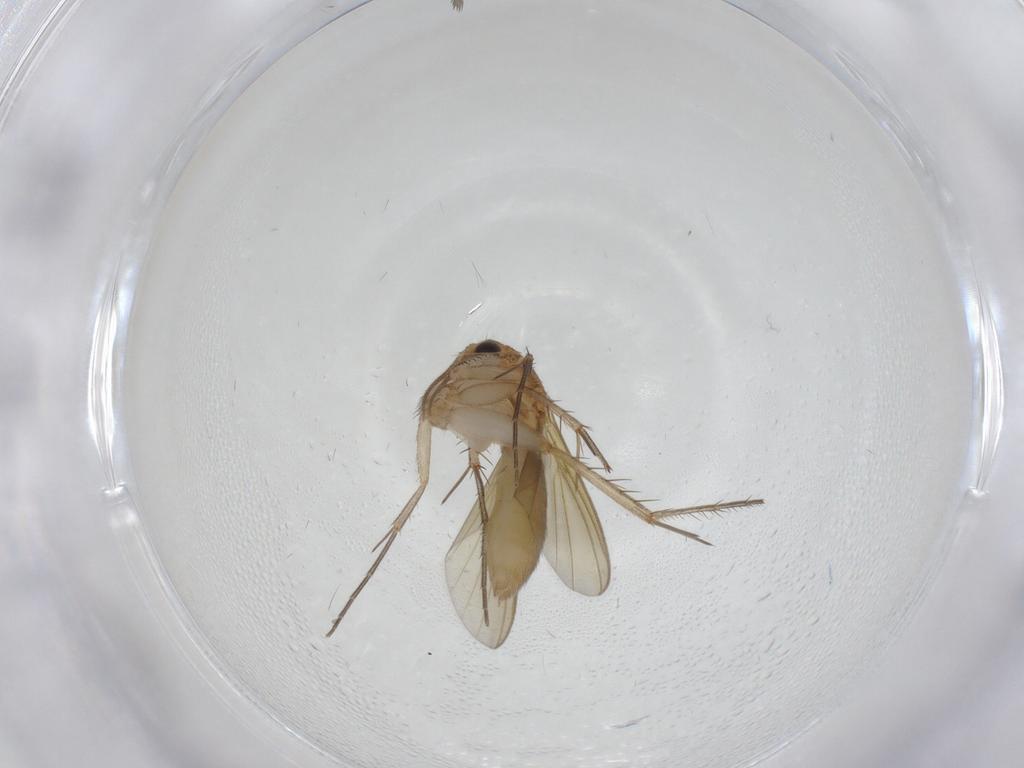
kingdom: Animalia
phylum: Arthropoda
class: Insecta
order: Diptera
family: Mycetophilidae
